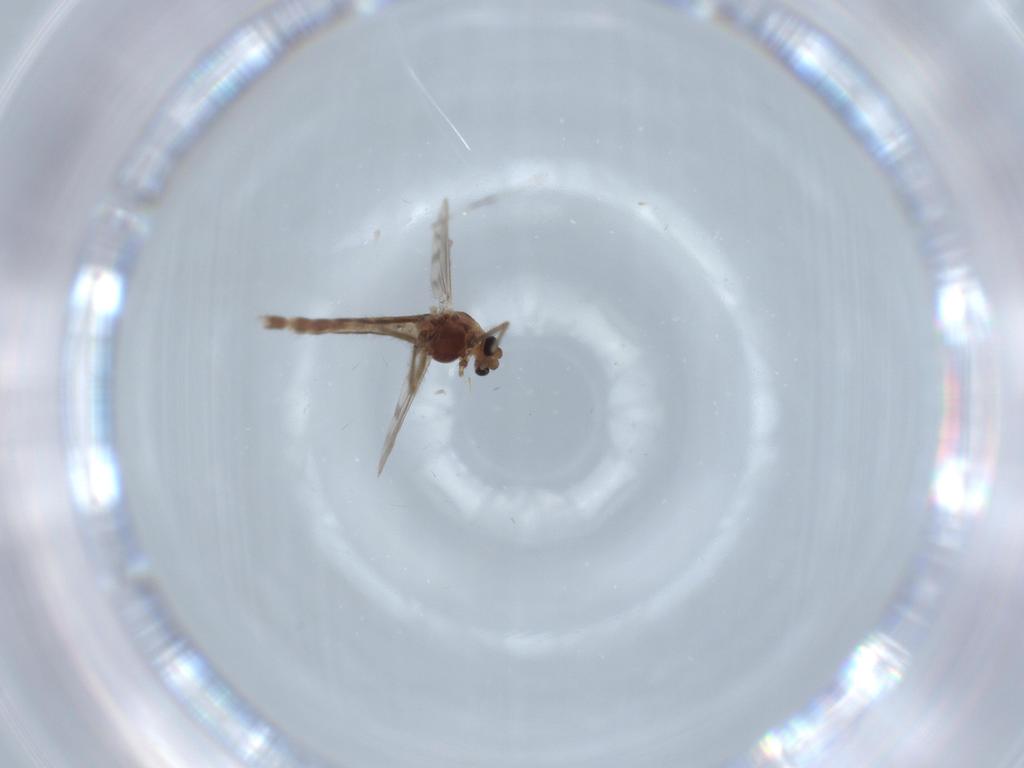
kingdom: Animalia
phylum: Arthropoda
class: Insecta
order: Diptera
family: Chironomidae
